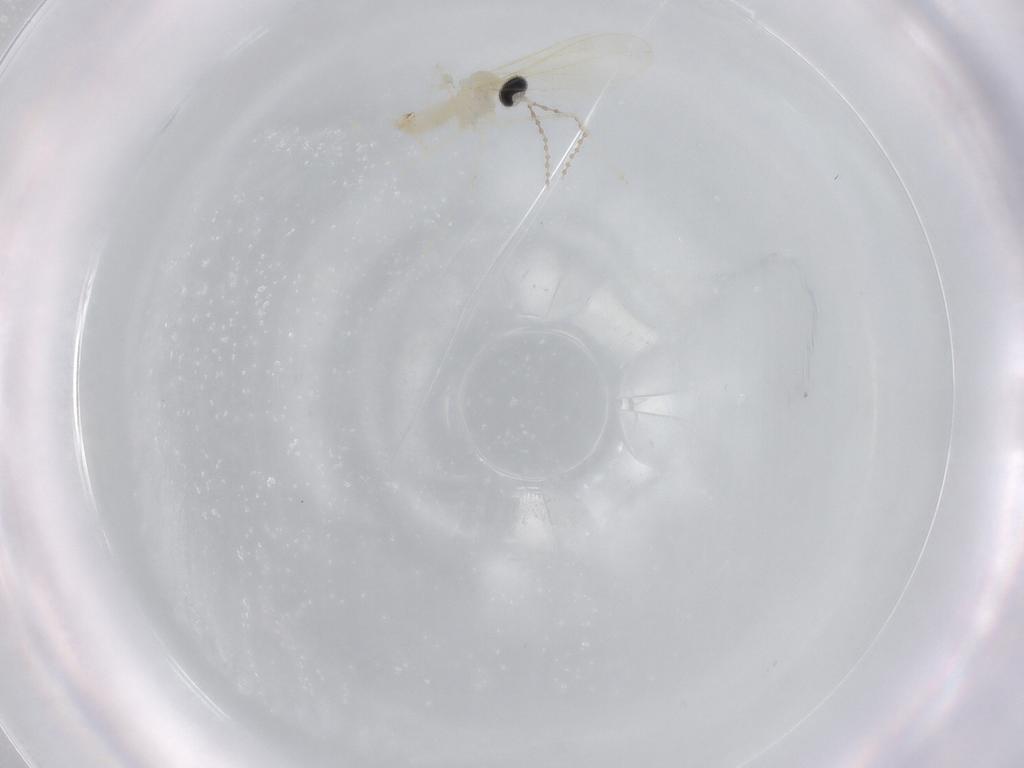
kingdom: Animalia
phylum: Arthropoda
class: Insecta
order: Diptera
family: Cecidomyiidae
